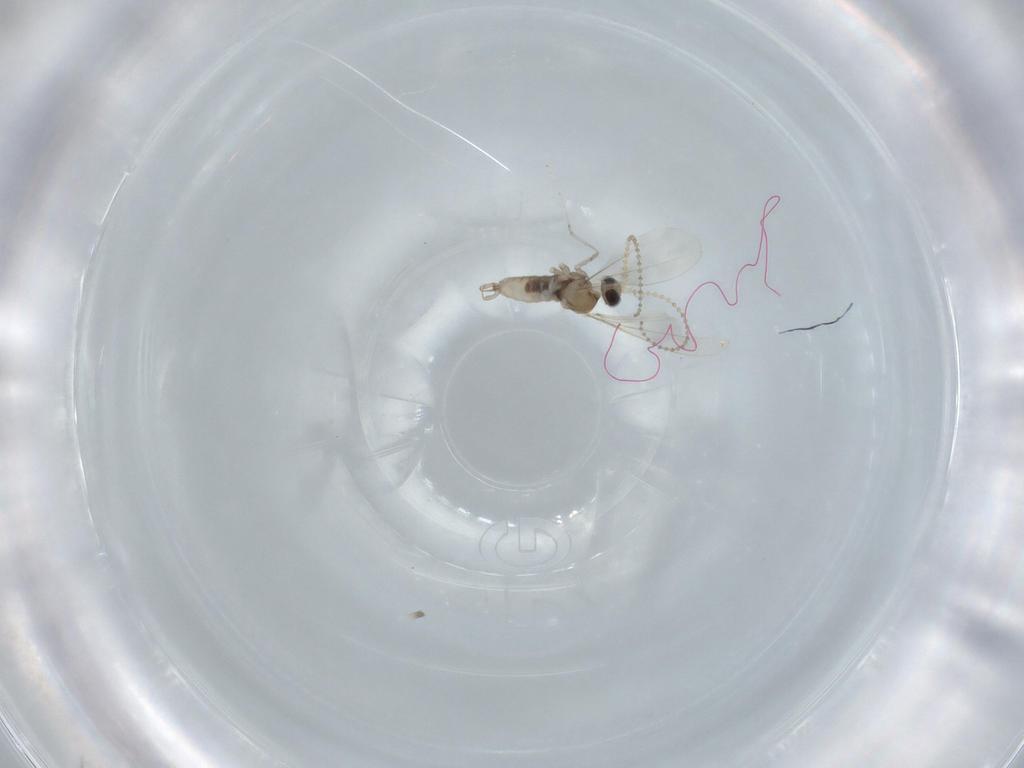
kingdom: Animalia
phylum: Arthropoda
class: Insecta
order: Diptera
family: Cecidomyiidae
